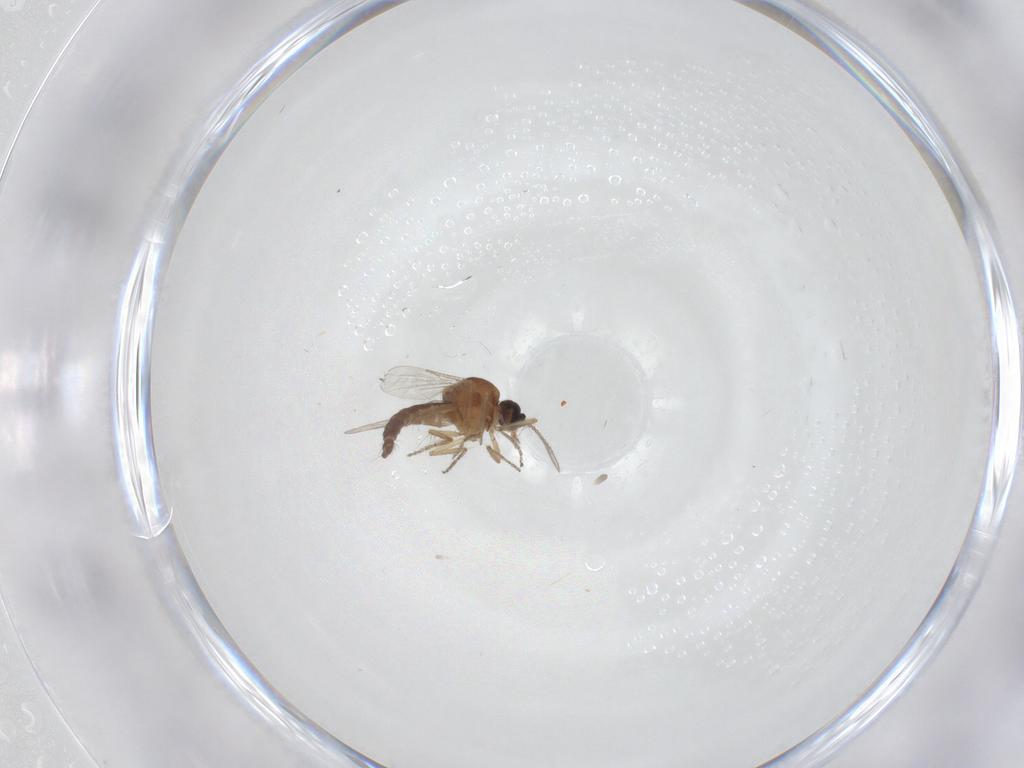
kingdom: Animalia
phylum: Arthropoda
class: Insecta
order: Diptera
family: Ceratopogonidae
